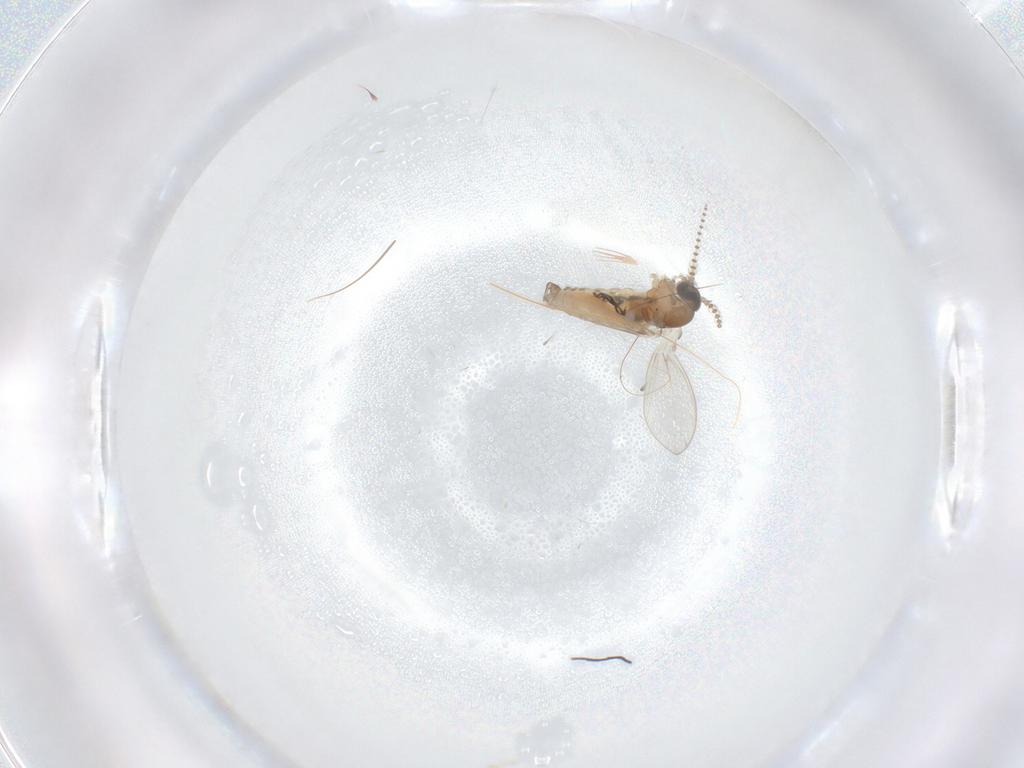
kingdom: Animalia
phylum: Arthropoda
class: Insecta
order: Diptera
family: Psychodidae
